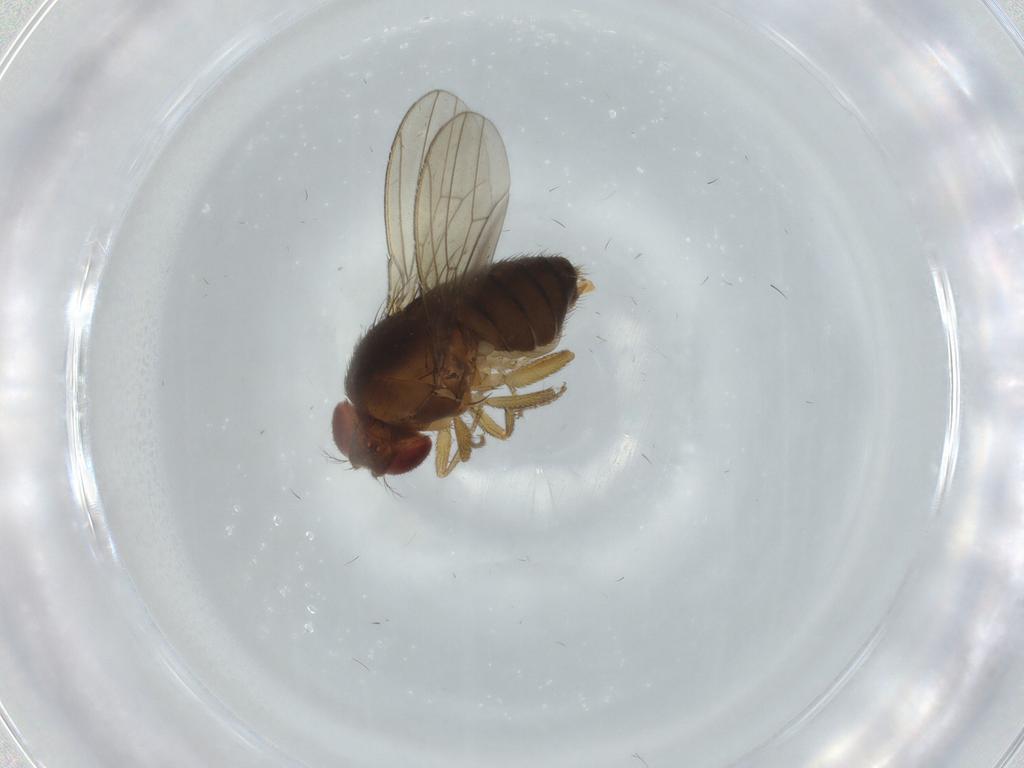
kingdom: Animalia
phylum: Arthropoda
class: Insecta
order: Diptera
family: Drosophilidae
